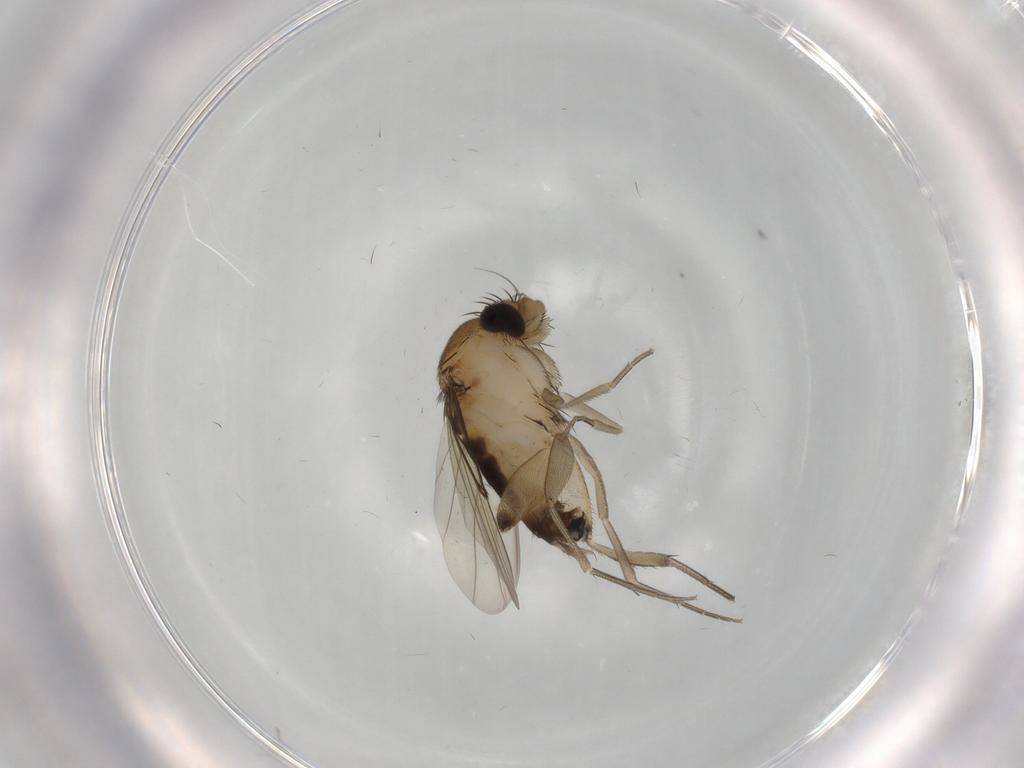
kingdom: Animalia
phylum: Arthropoda
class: Insecta
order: Diptera
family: Phoridae
